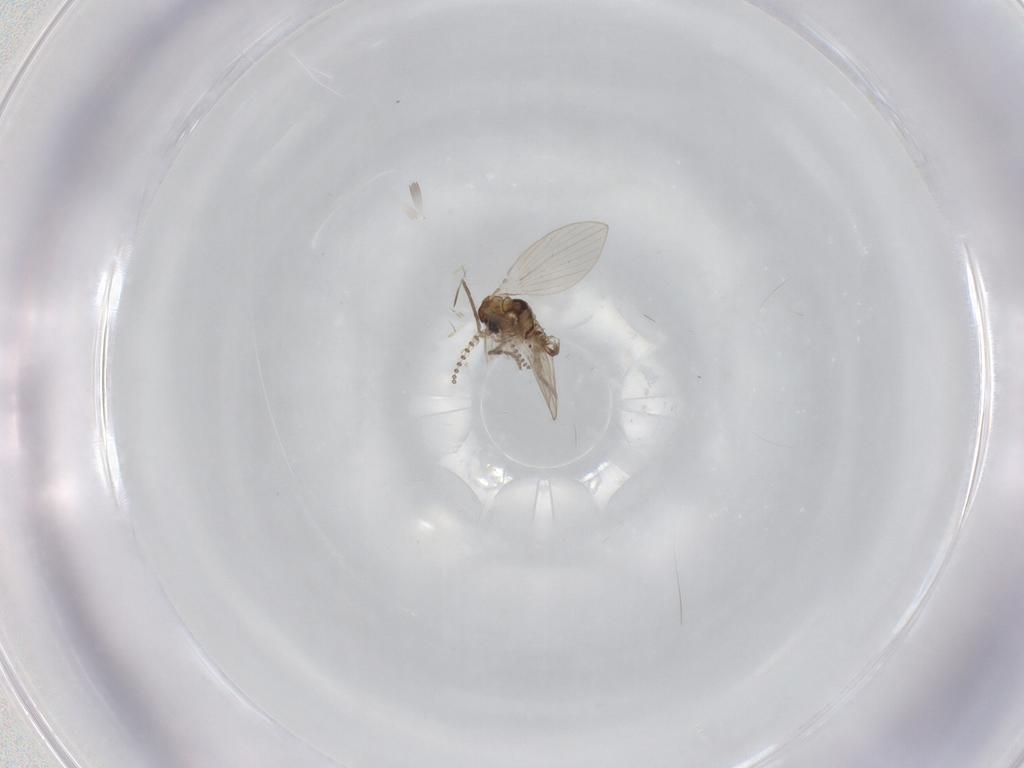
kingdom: Animalia
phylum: Arthropoda
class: Insecta
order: Diptera
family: Psychodidae
